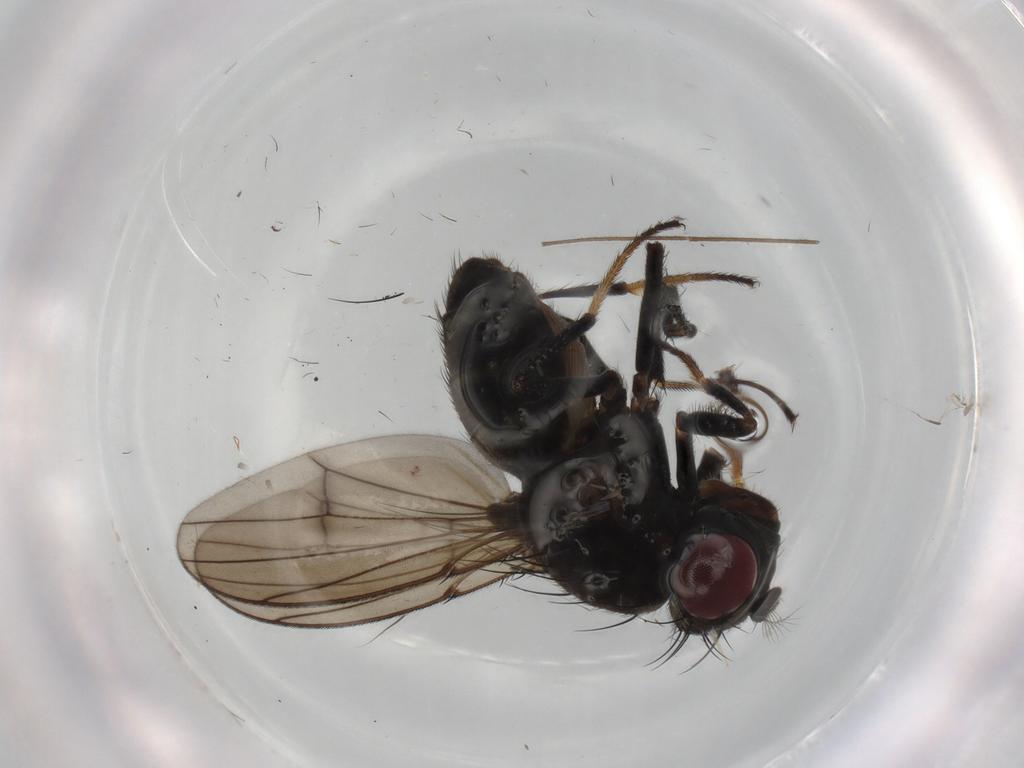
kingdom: Animalia
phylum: Arthropoda
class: Insecta
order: Diptera
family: Ephydridae
